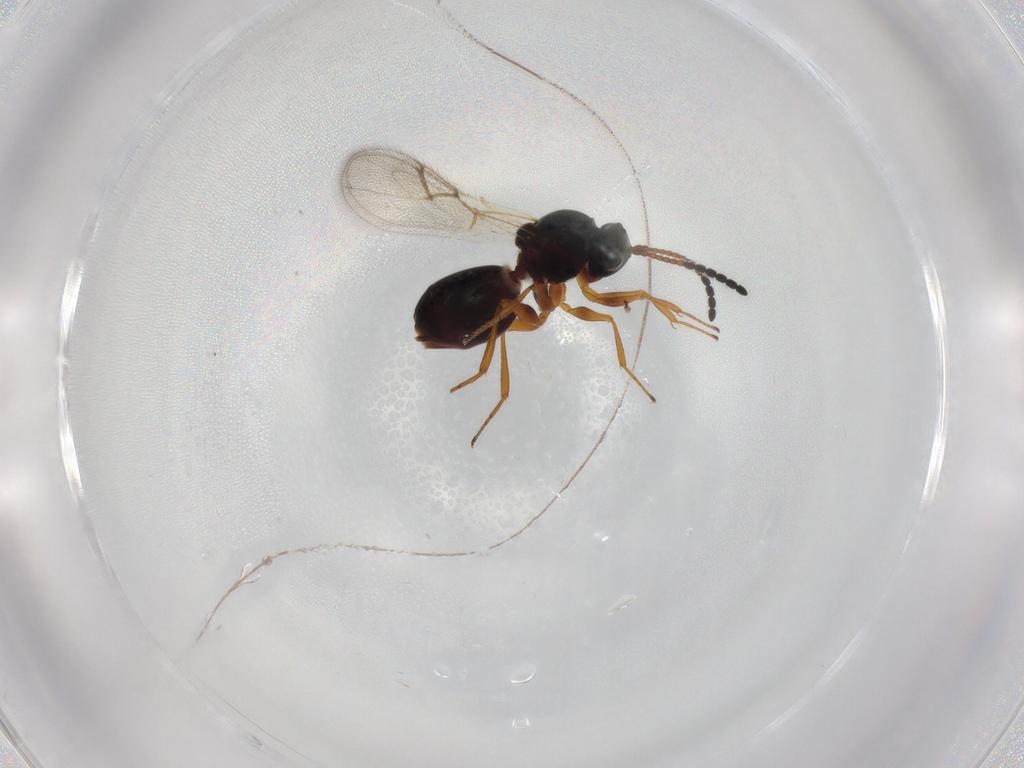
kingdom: Animalia
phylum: Arthropoda
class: Insecta
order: Hymenoptera
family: Figitidae
